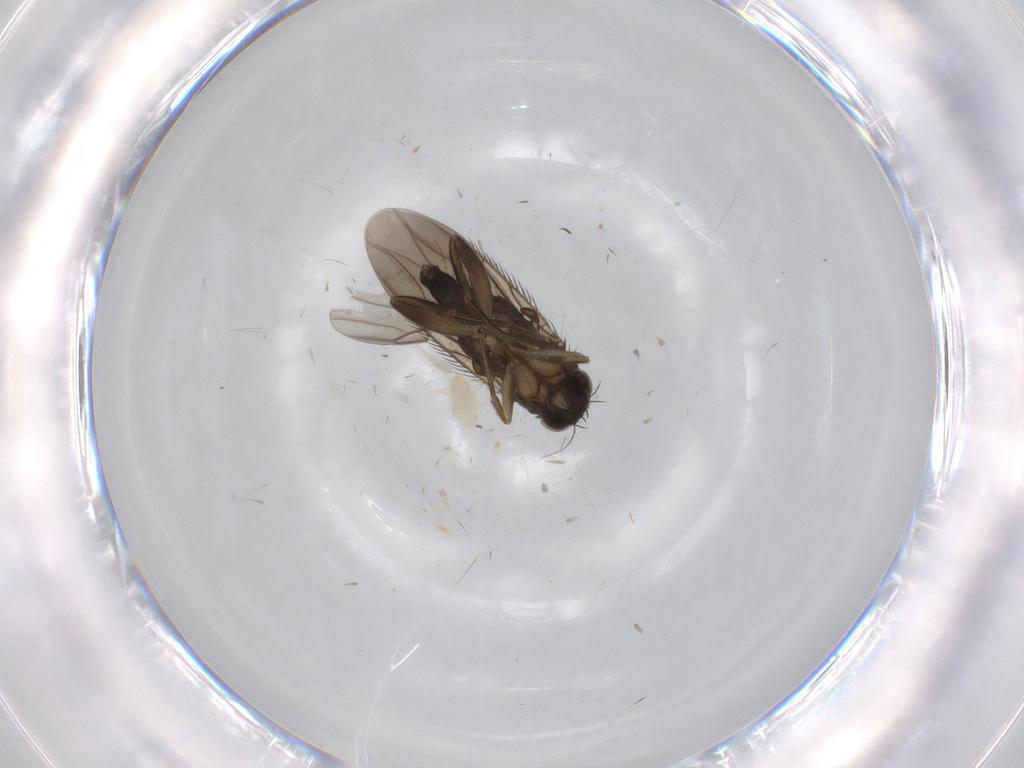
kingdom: Animalia
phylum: Arthropoda
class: Insecta
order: Diptera
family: Phoridae
